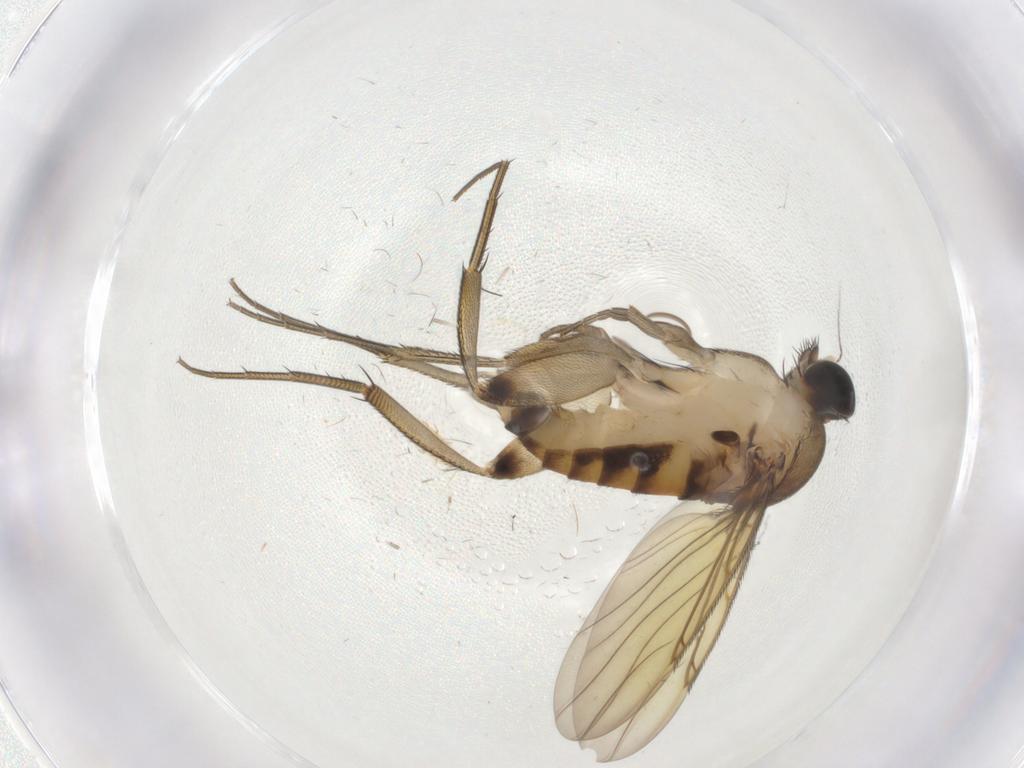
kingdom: Animalia
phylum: Arthropoda
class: Insecta
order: Diptera
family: Phoridae
